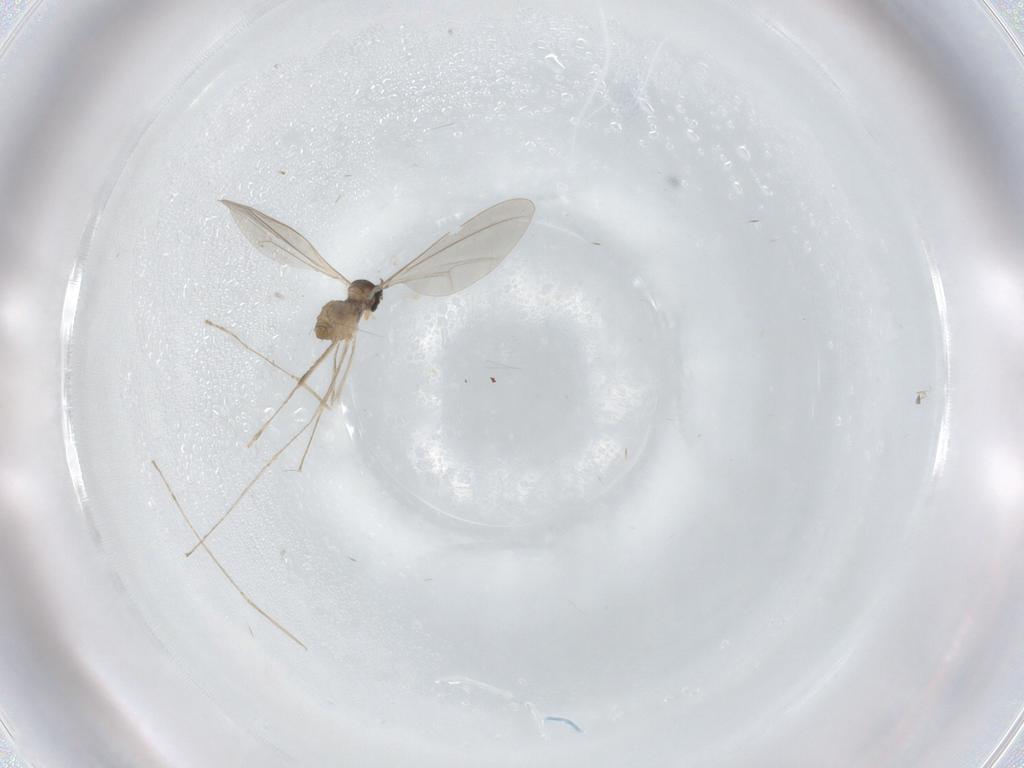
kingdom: Animalia
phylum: Arthropoda
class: Insecta
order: Diptera
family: Cecidomyiidae
